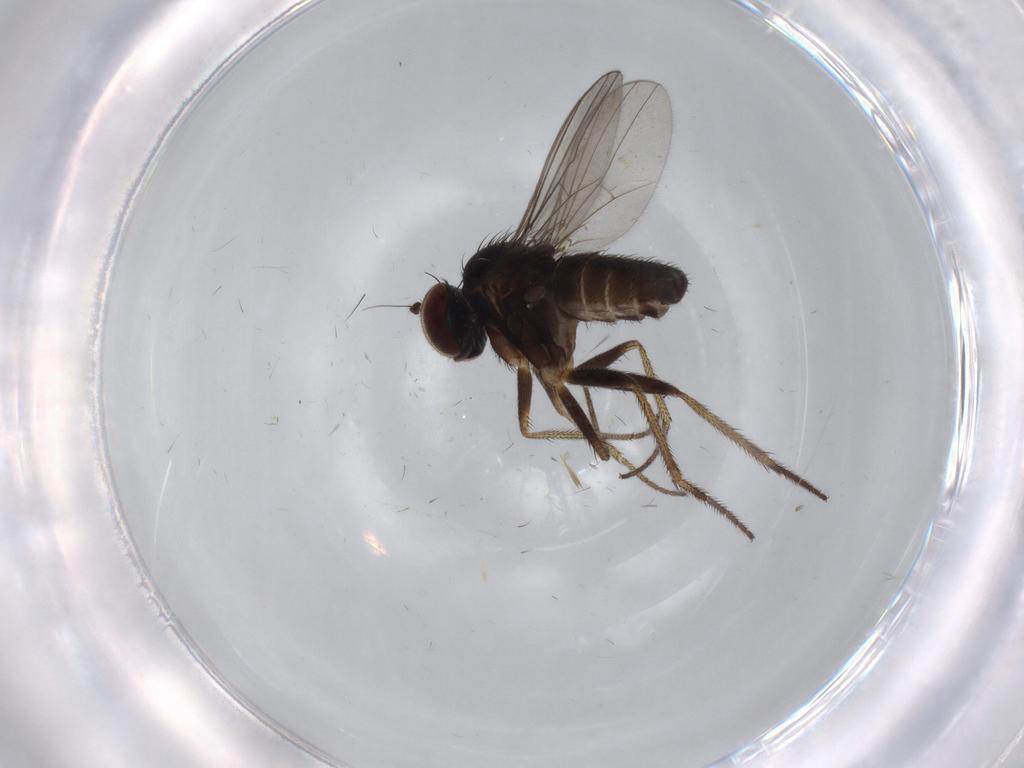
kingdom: Animalia
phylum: Arthropoda
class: Insecta
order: Diptera
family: Dolichopodidae
